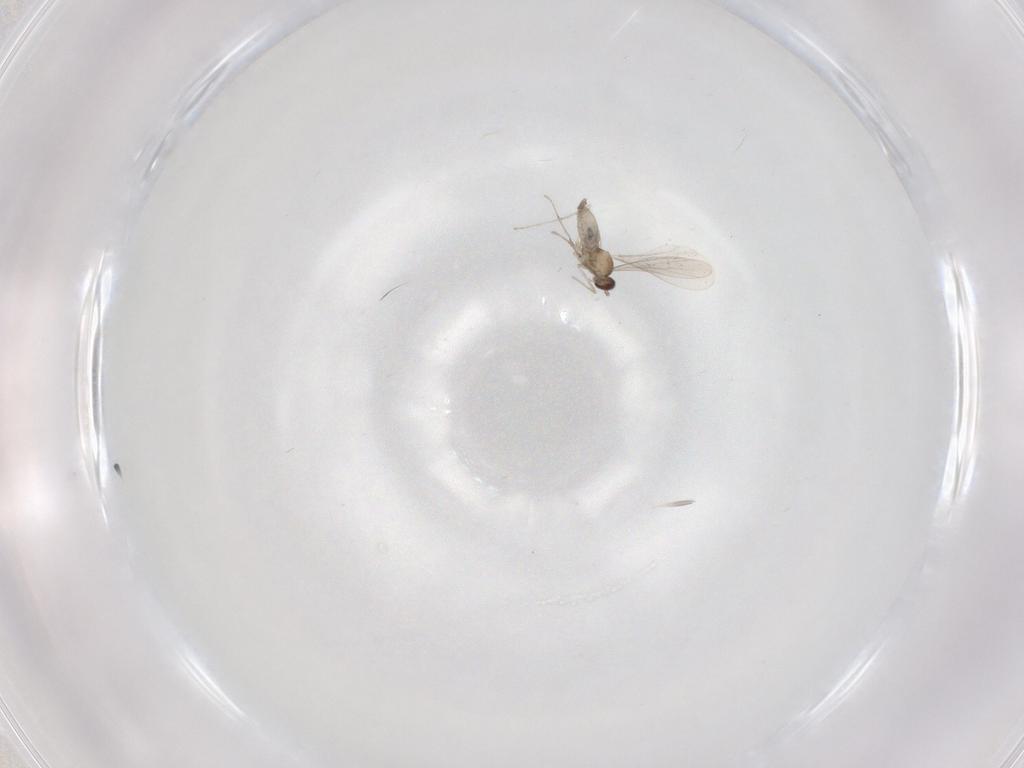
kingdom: Animalia
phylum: Arthropoda
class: Insecta
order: Diptera
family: Cecidomyiidae
